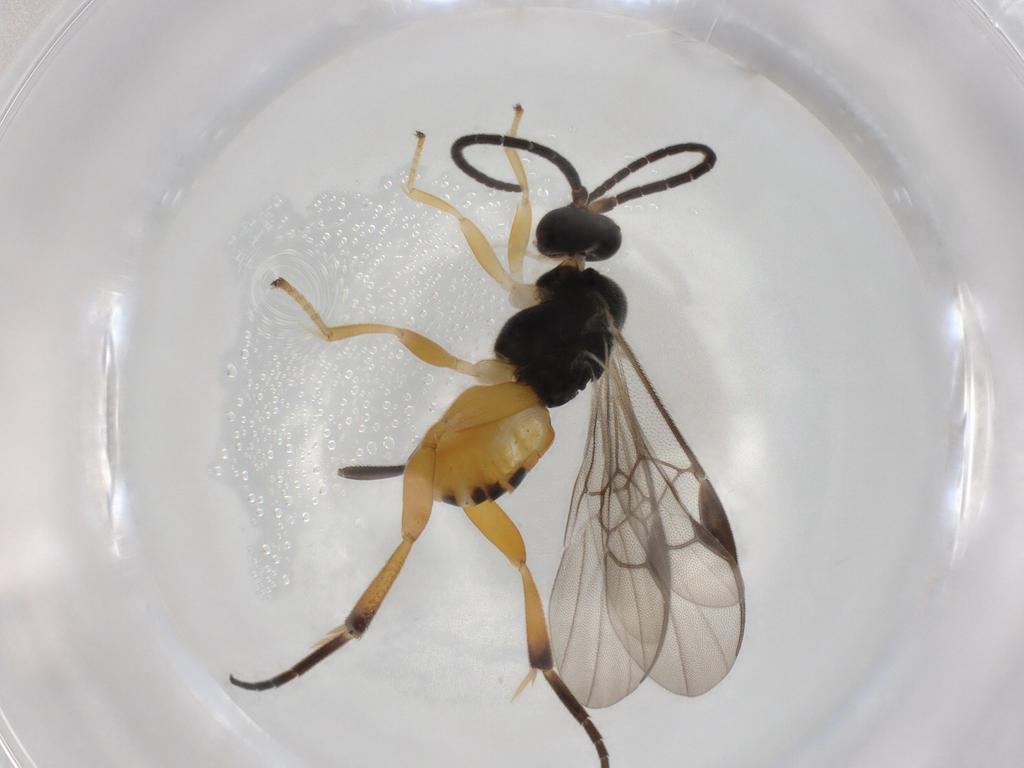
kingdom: Animalia
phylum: Arthropoda
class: Insecta
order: Hymenoptera
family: Braconidae
